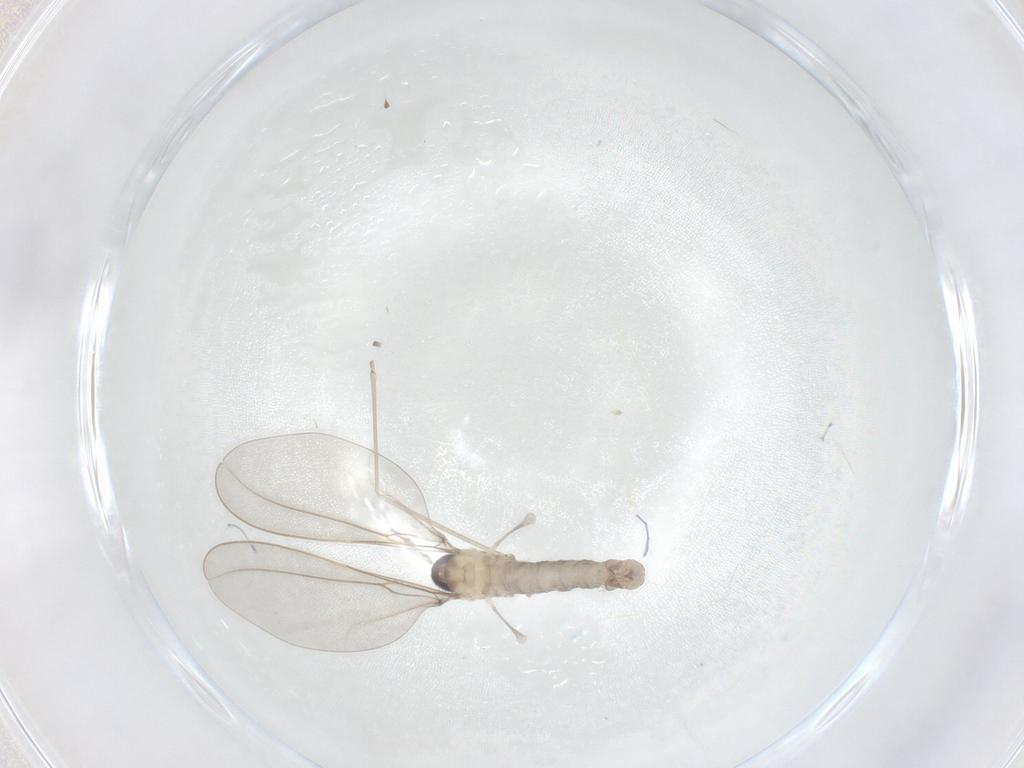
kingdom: Animalia
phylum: Arthropoda
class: Insecta
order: Diptera
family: Cecidomyiidae
